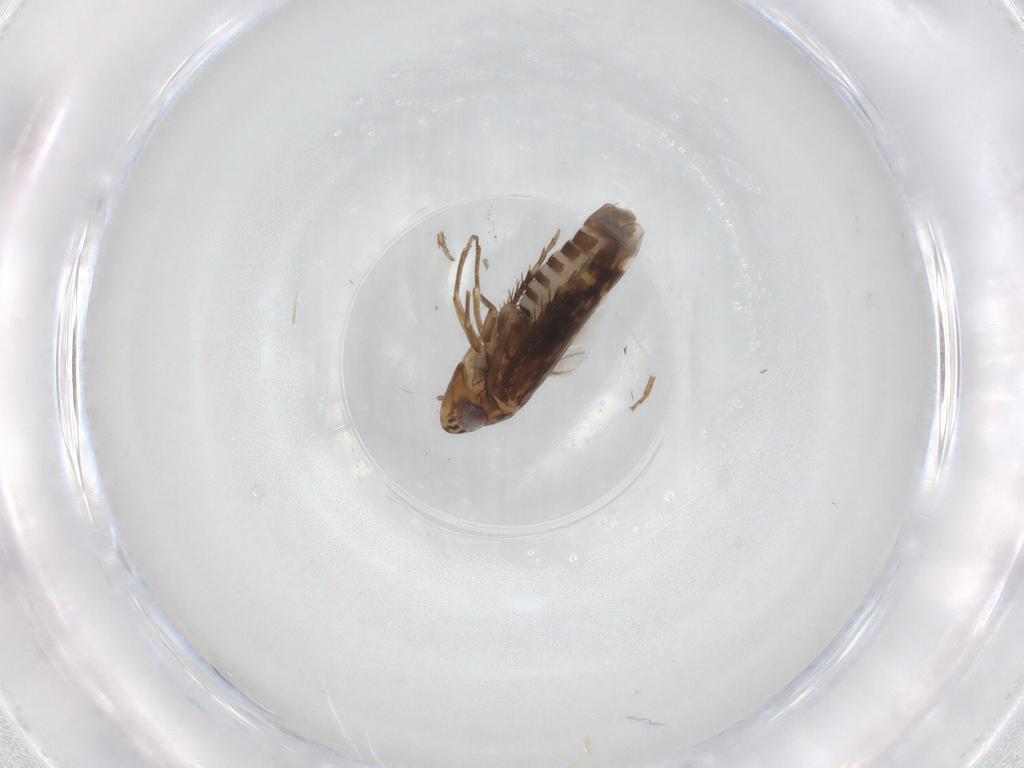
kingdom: Animalia
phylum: Arthropoda
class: Insecta
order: Hemiptera
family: Cicadellidae
